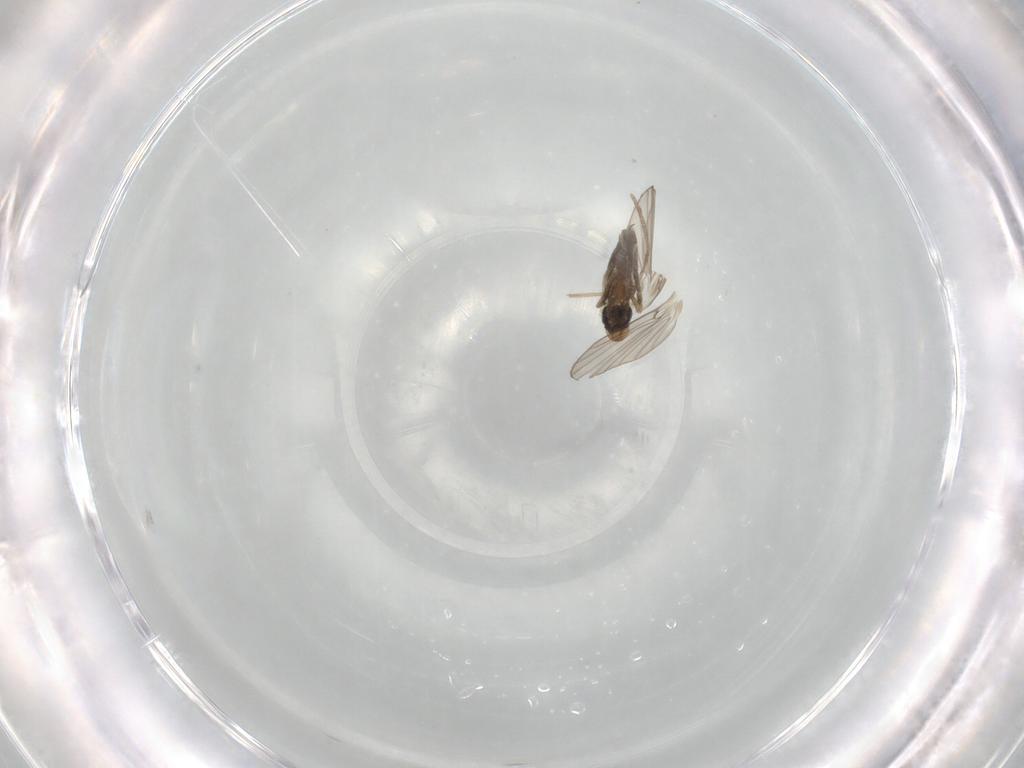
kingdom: Animalia
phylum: Arthropoda
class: Insecta
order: Diptera
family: Psychodidae
